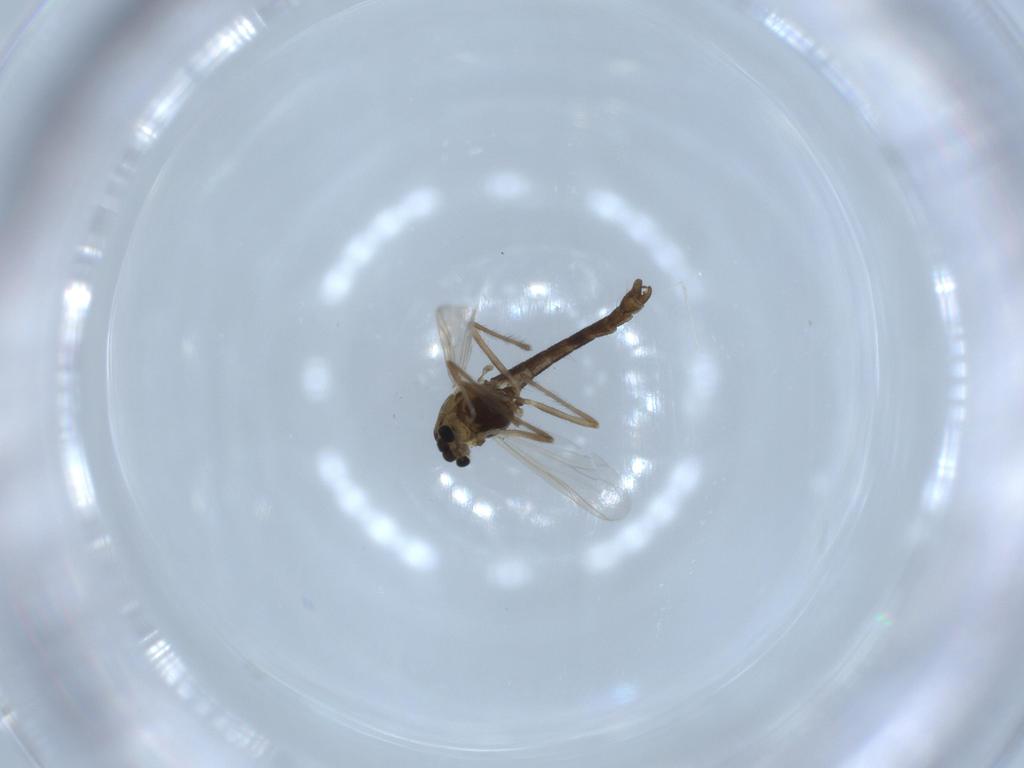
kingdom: Animalia
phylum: Arthropoda
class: Insecta
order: Diptera
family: Chironomidae
